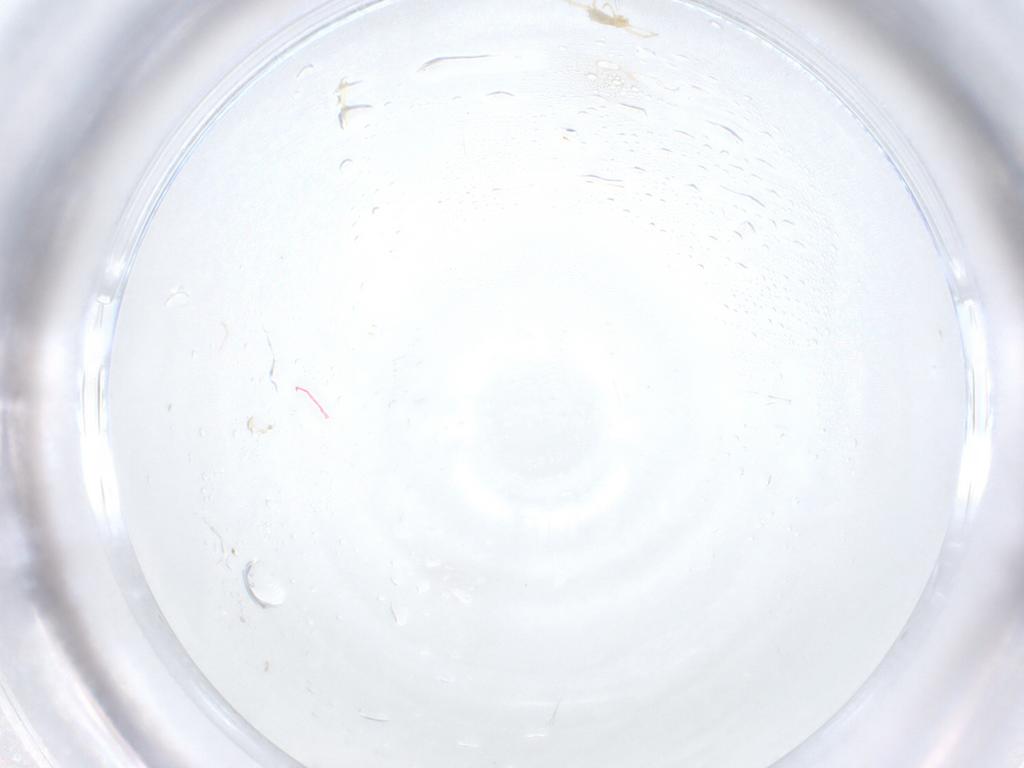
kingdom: Animalia
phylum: Arthropoda
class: Arachnida
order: Trombidiformes
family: Erythraeidae
